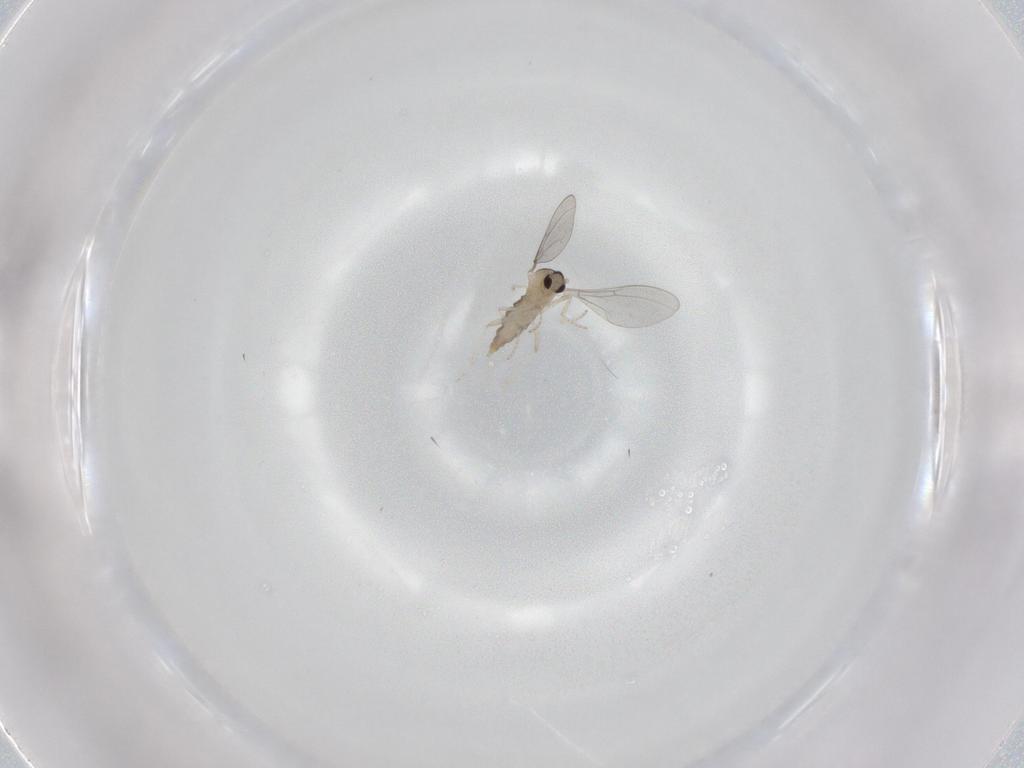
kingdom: Animalia
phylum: Arthropoda
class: Insecta
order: Diptera
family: Cecidomyiidae
